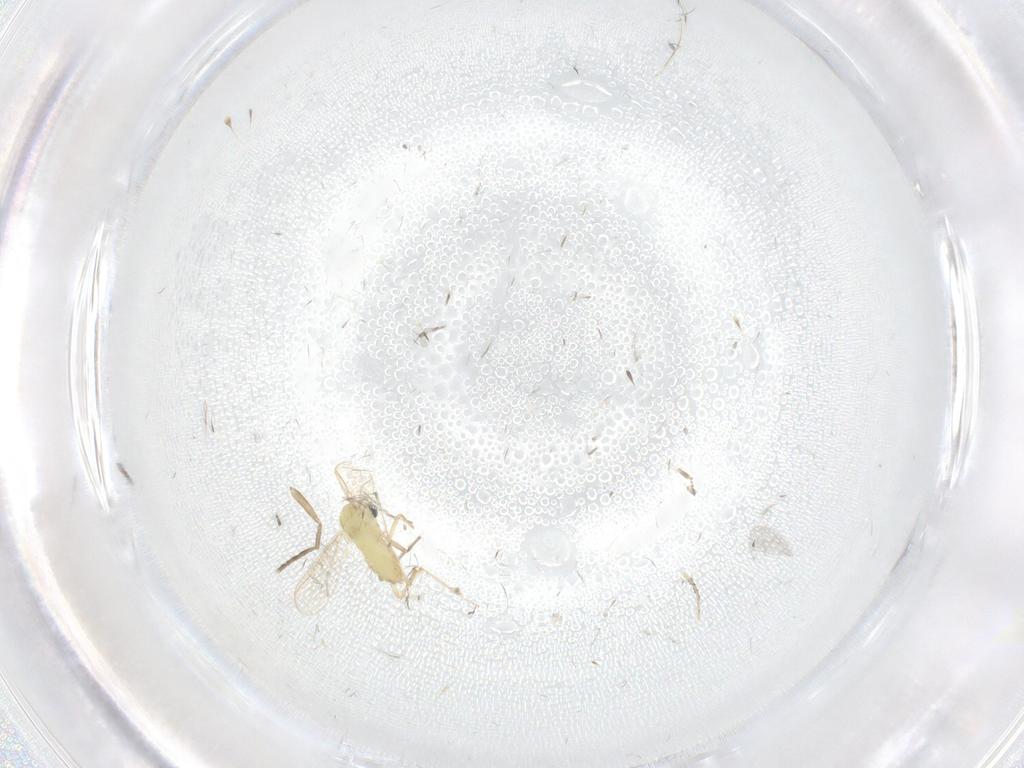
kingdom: Animalia
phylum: Arthropoda
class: Insecta
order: Diptera
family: Chironomidae
